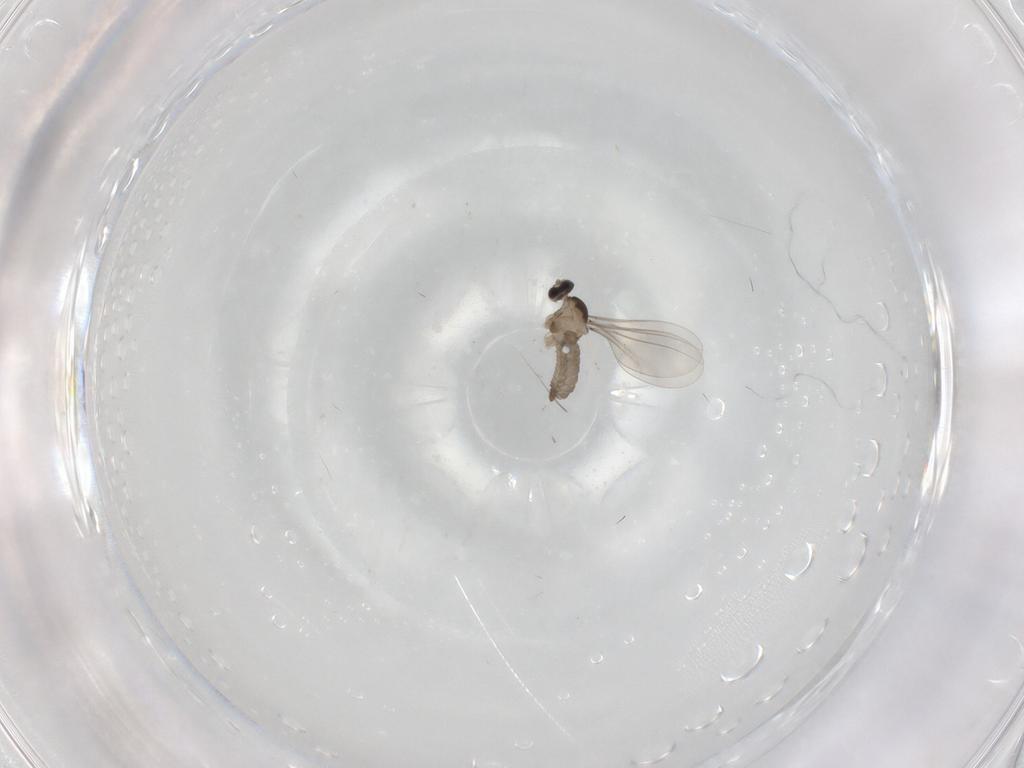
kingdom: Animalia
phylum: Arthropoda
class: Insecta
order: Diptera
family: Cecidomyiidae
